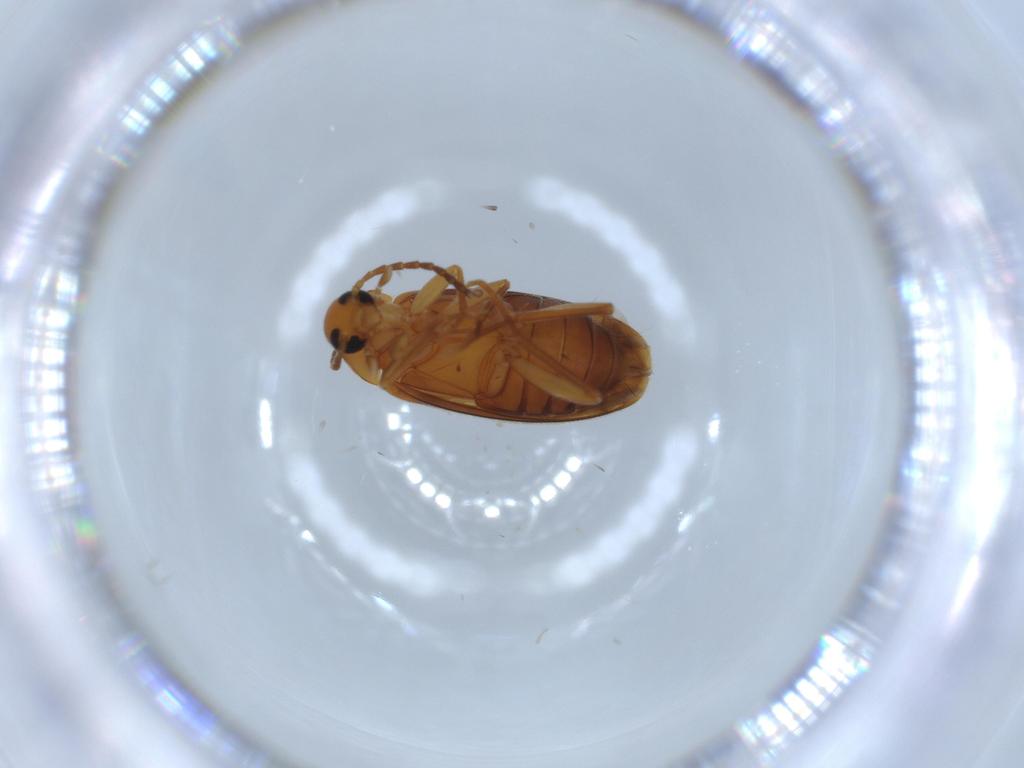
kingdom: Animalia
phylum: Arthropoda
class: Insecta
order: Coleoptera
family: Scraptiidae
